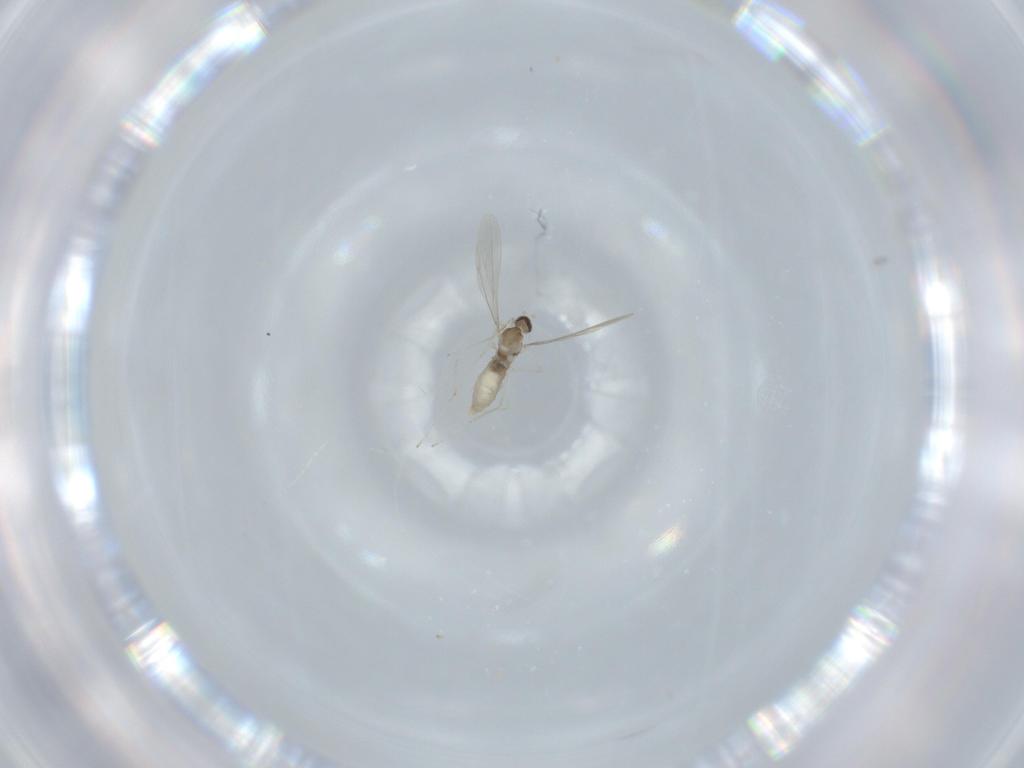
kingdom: Animalia
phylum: Arthropoda
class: Insecta
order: Diptera
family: Cecidomyiidae
